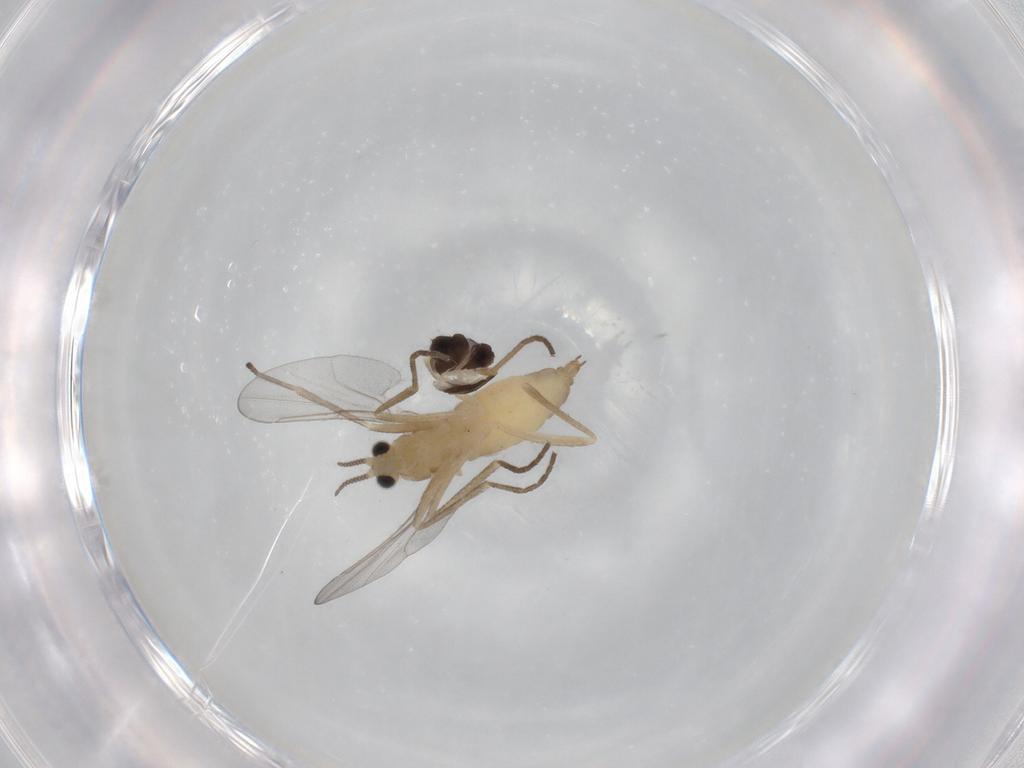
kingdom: Animalia
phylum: Arthropoda
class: Insecta
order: Diptera
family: Cecidomyiidae
